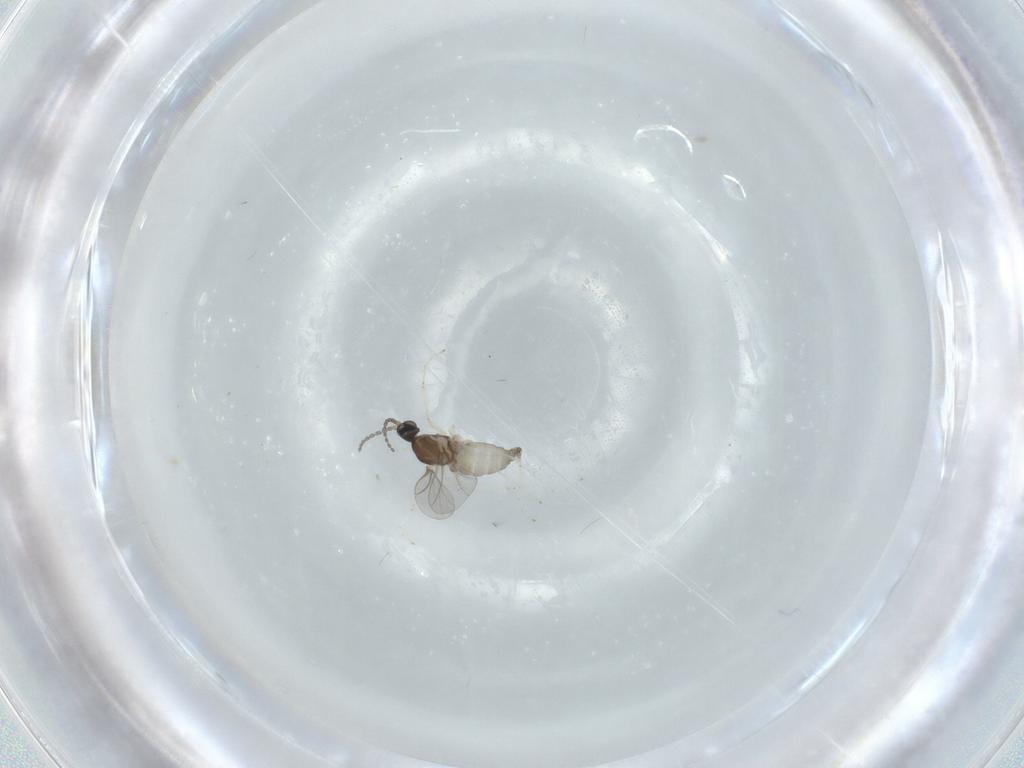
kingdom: Animalia
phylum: Arthropoda
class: Insecta
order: Diptera
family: Cecidomyiidae
